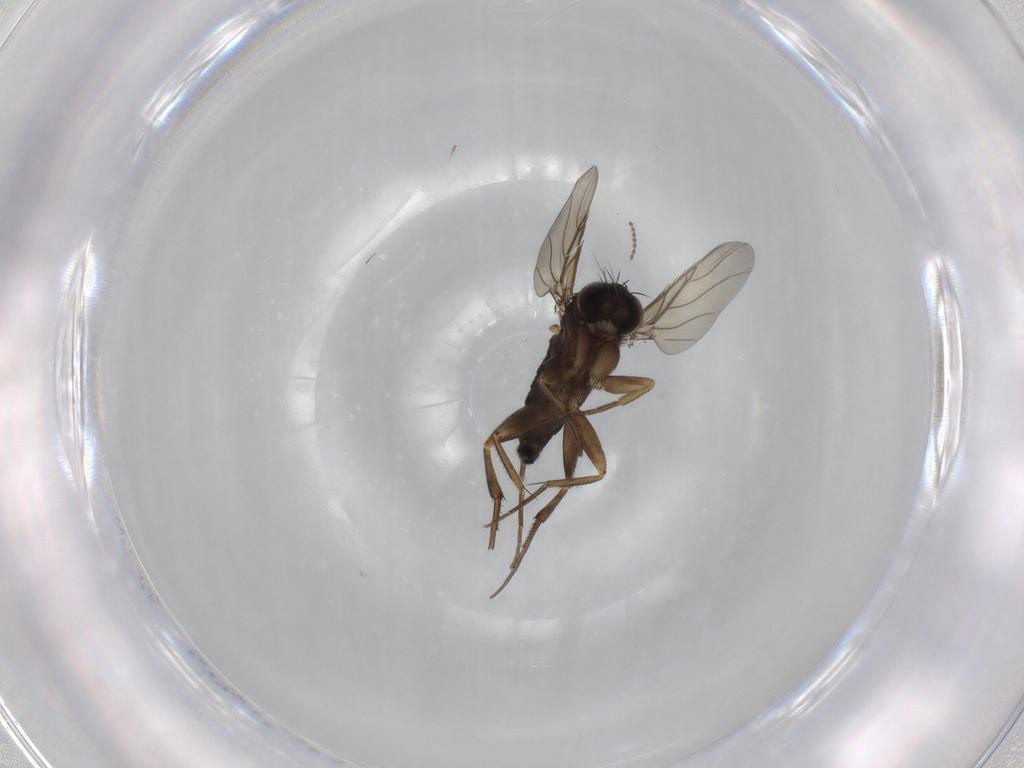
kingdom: Animalia
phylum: Arthropoda
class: Insecta
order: Diptera
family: Phoridae
